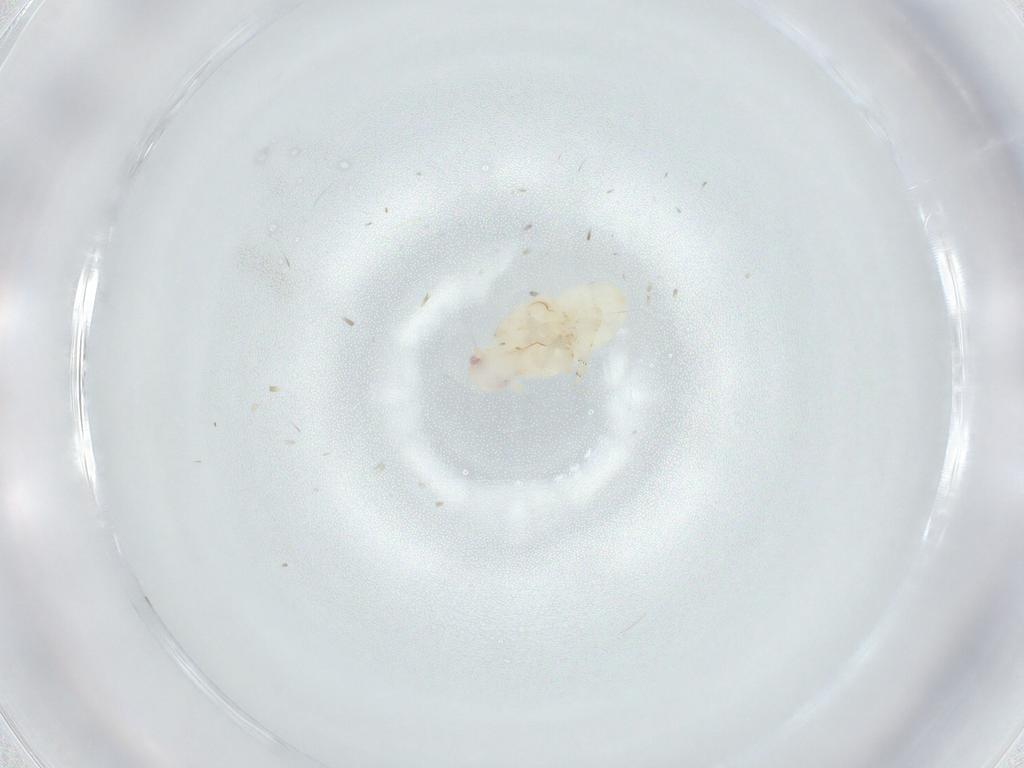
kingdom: Animalia
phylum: Arthropoda
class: Insecta
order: Hemiptera
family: Flatidae
